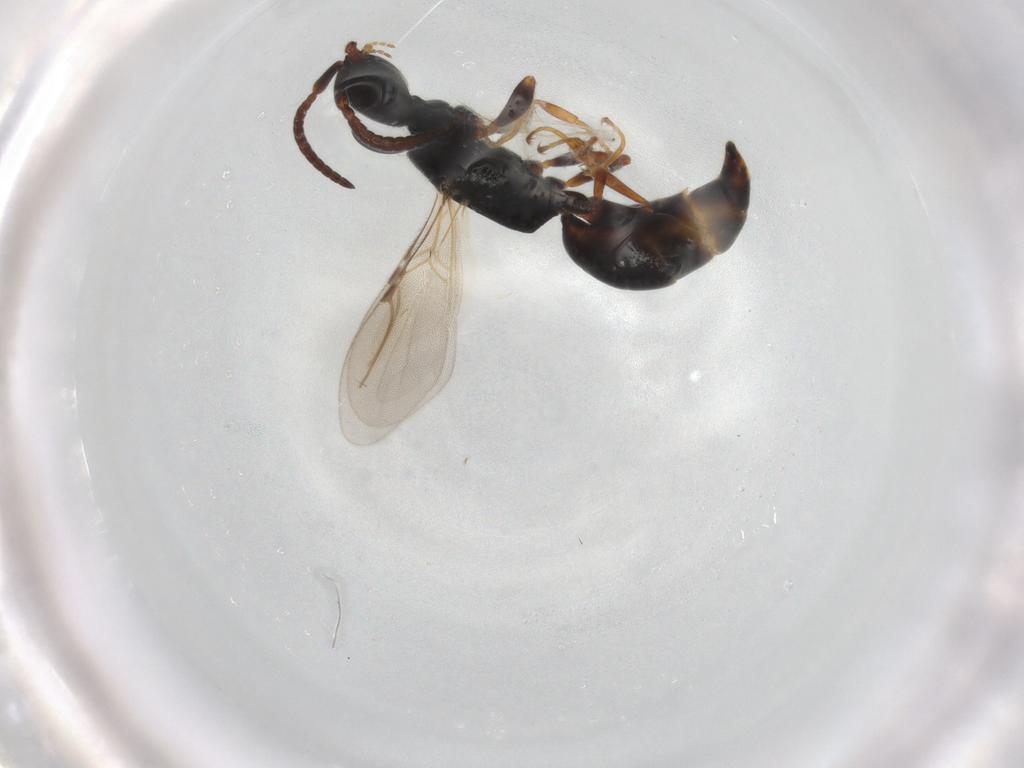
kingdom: Animalia
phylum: Arthropoda
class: Insecta
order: Hymenoptera
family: Bethylidae
